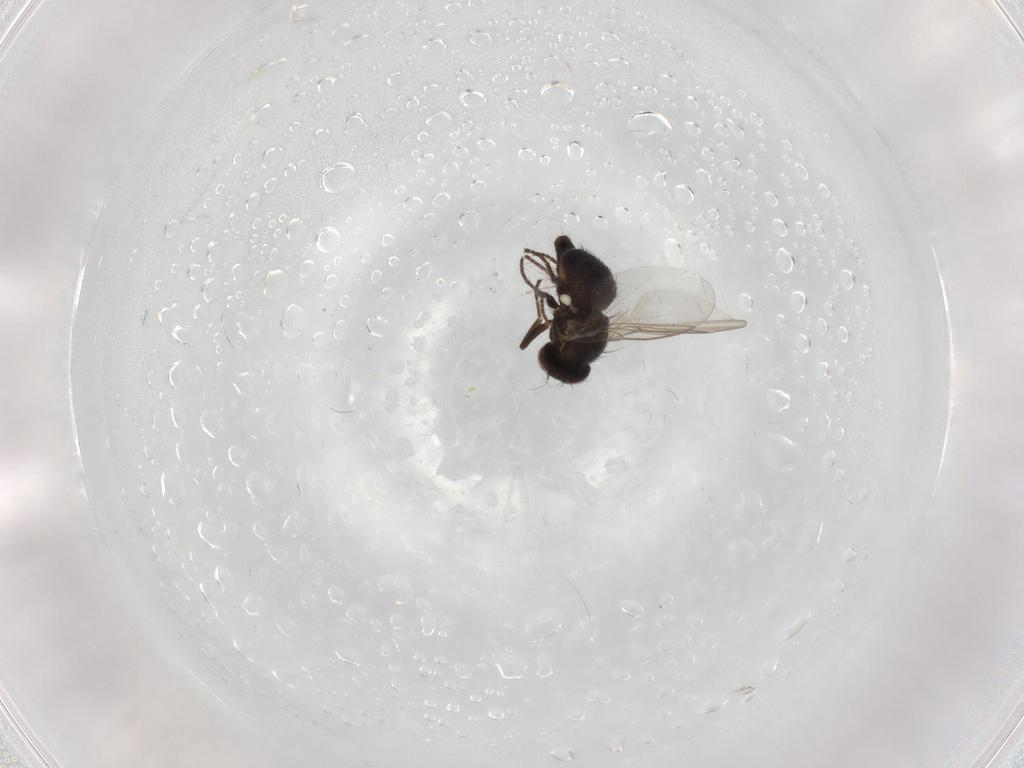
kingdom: Animalia
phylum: Arthropoda
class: Insecta
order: Diptera
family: Agromyzidae
